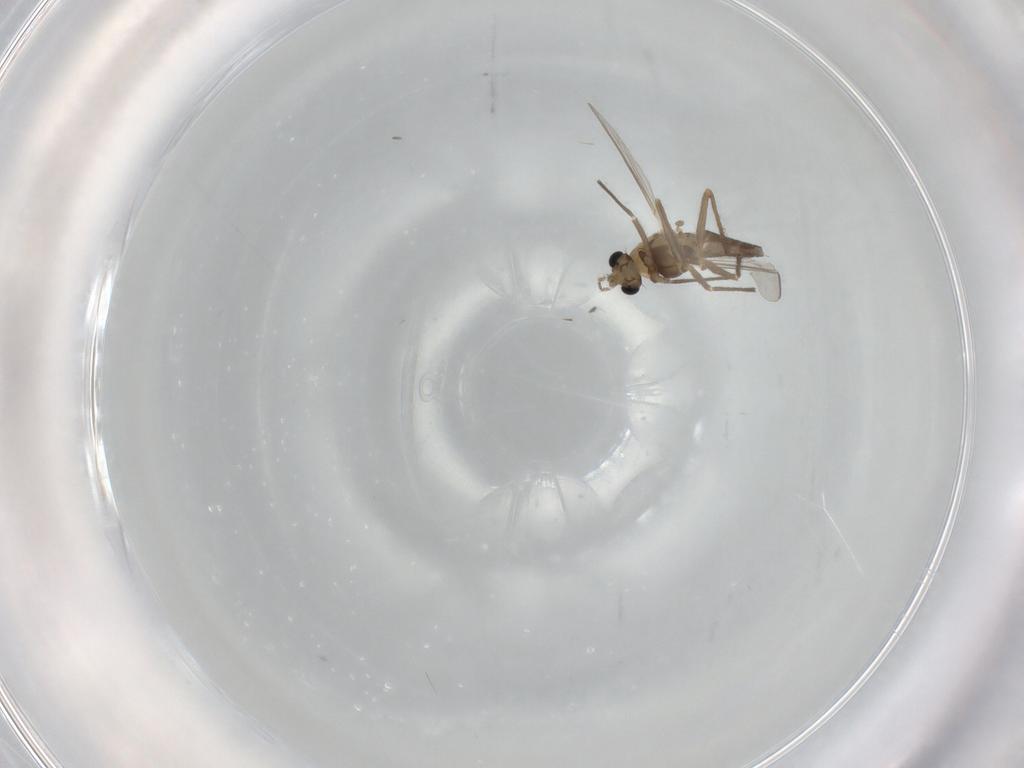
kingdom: Animalia
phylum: Arthropoda
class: Insecta
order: Diptera
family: Chironomidae
